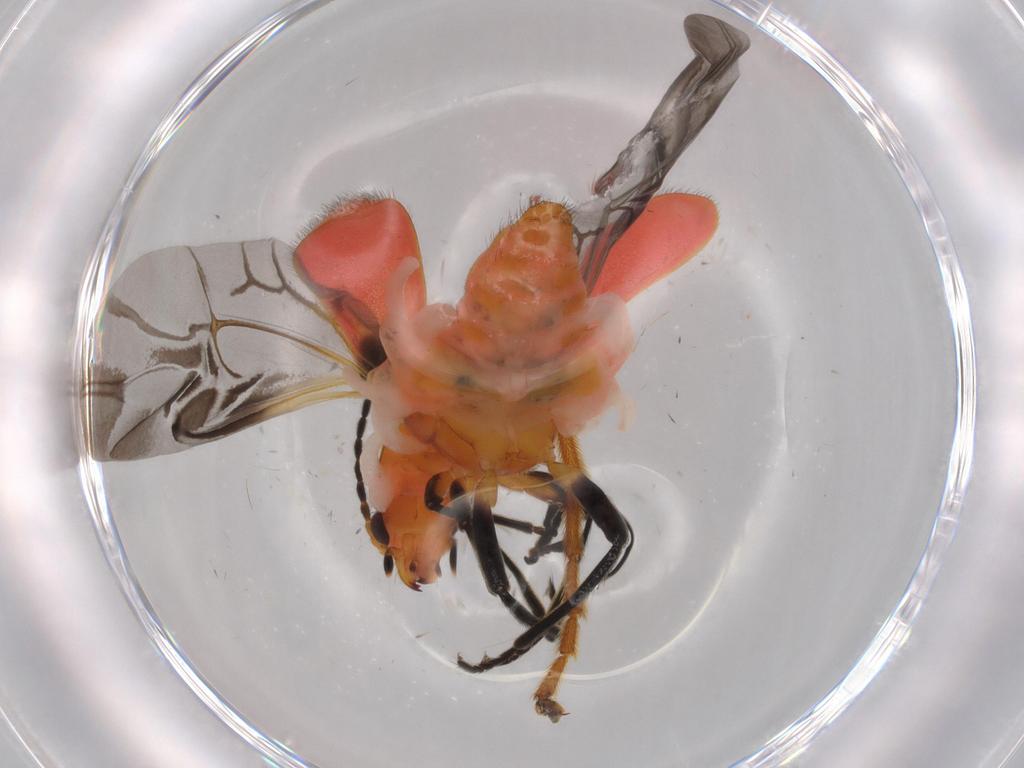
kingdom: Animalia
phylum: Arthropoda
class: Insecta
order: Coleoptera
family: Melyridae
